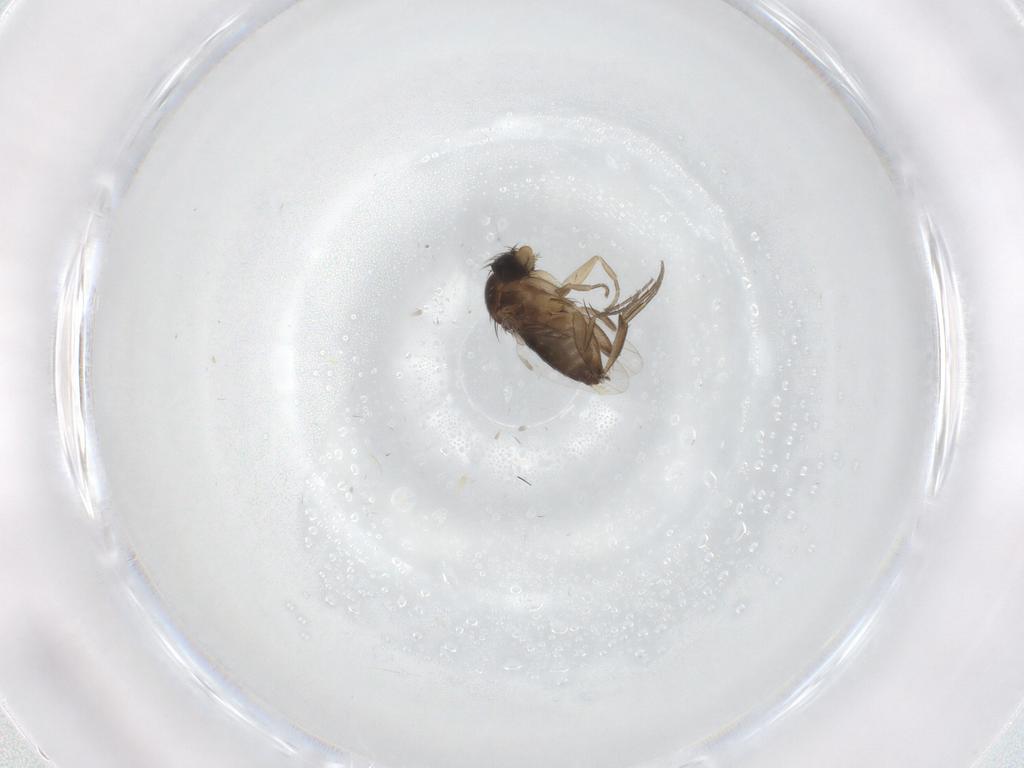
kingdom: Animalia
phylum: Arthropoda
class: Insecta
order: Diptera
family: Phoridae
